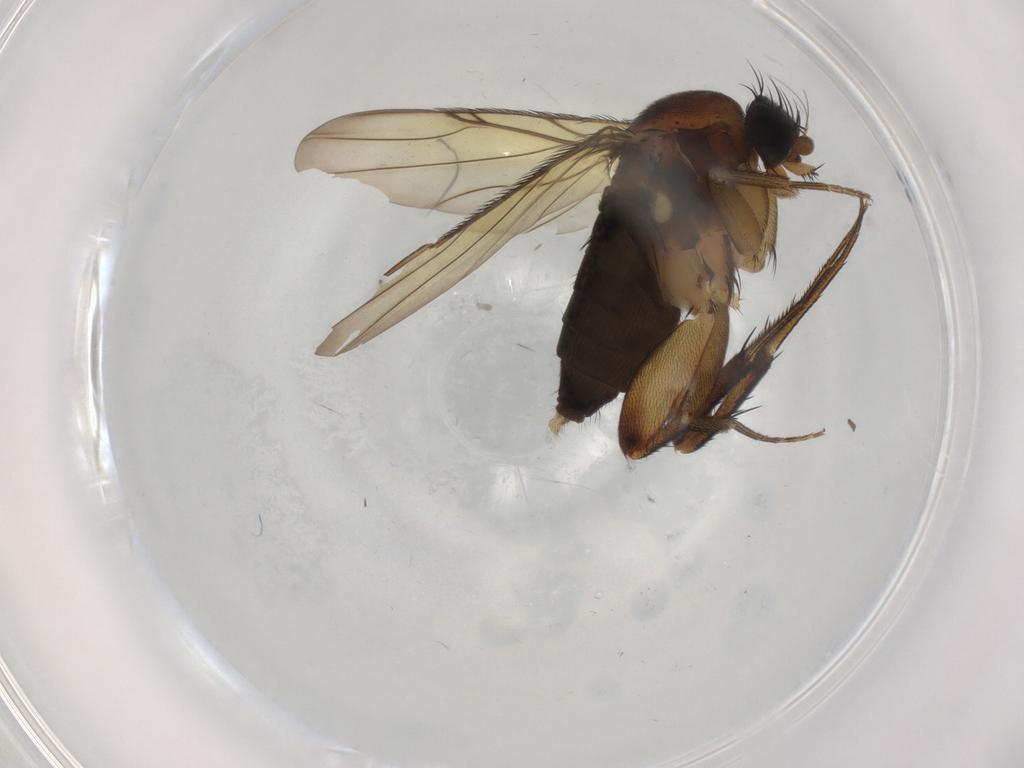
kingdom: Animalia
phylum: Arthropoda
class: Insecta
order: Diptera
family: Phoridae
